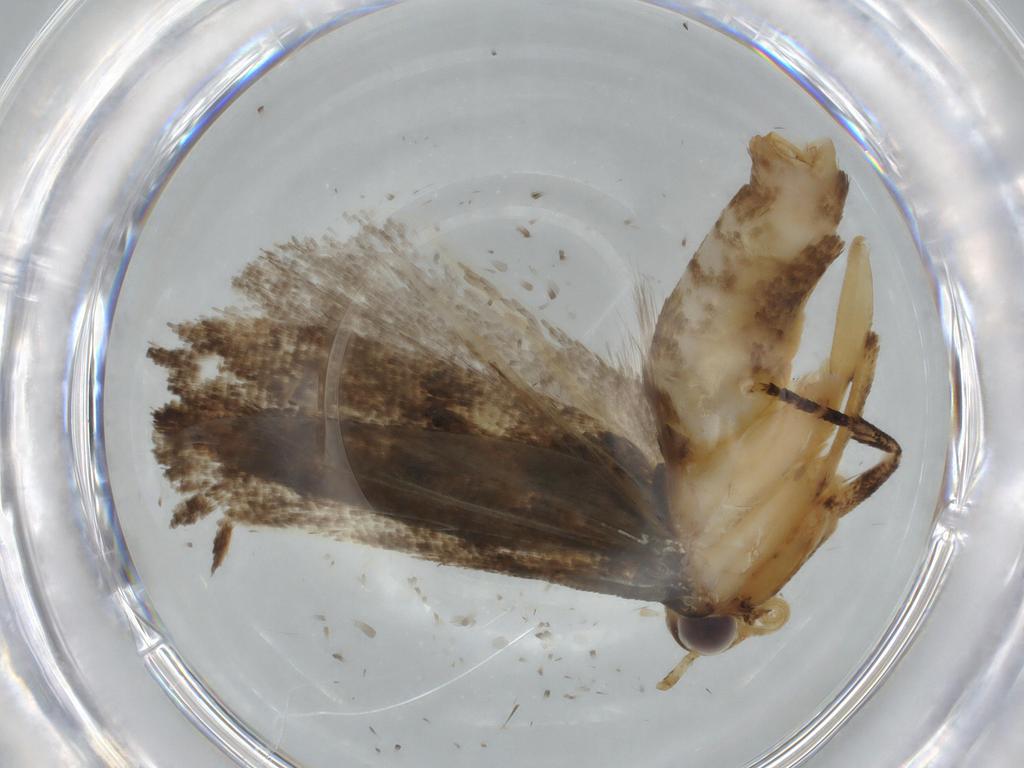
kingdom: Animalia
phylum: Arthropoda
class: Insecta
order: Lepidoptera
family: Gelechiidae
